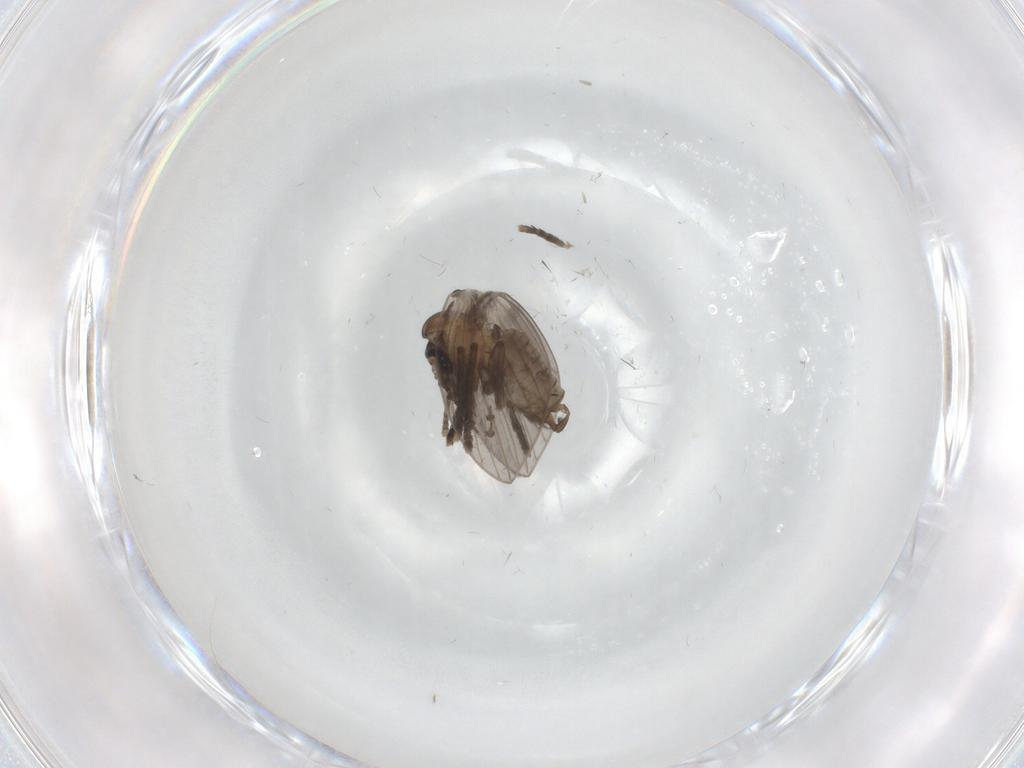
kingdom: Animalia
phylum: Arthropoda
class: Insecta
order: Diptera
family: Psychodidae
